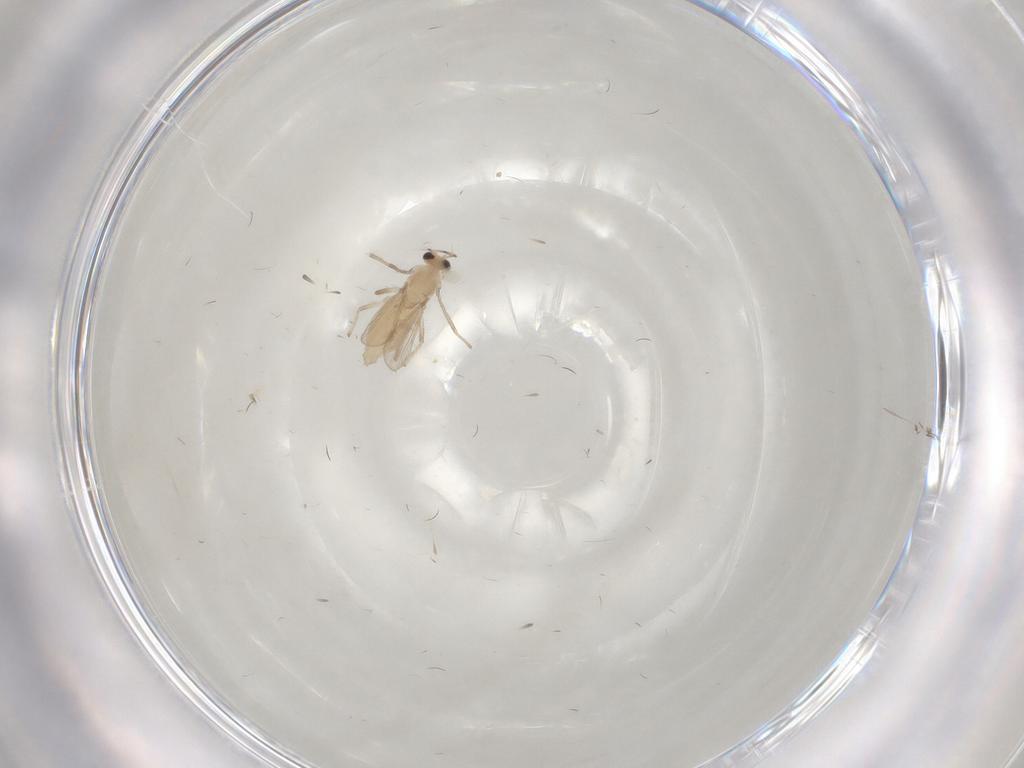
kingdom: Animalia
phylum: Arthropoda
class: Insecta
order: Diptera
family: Chironomidae
